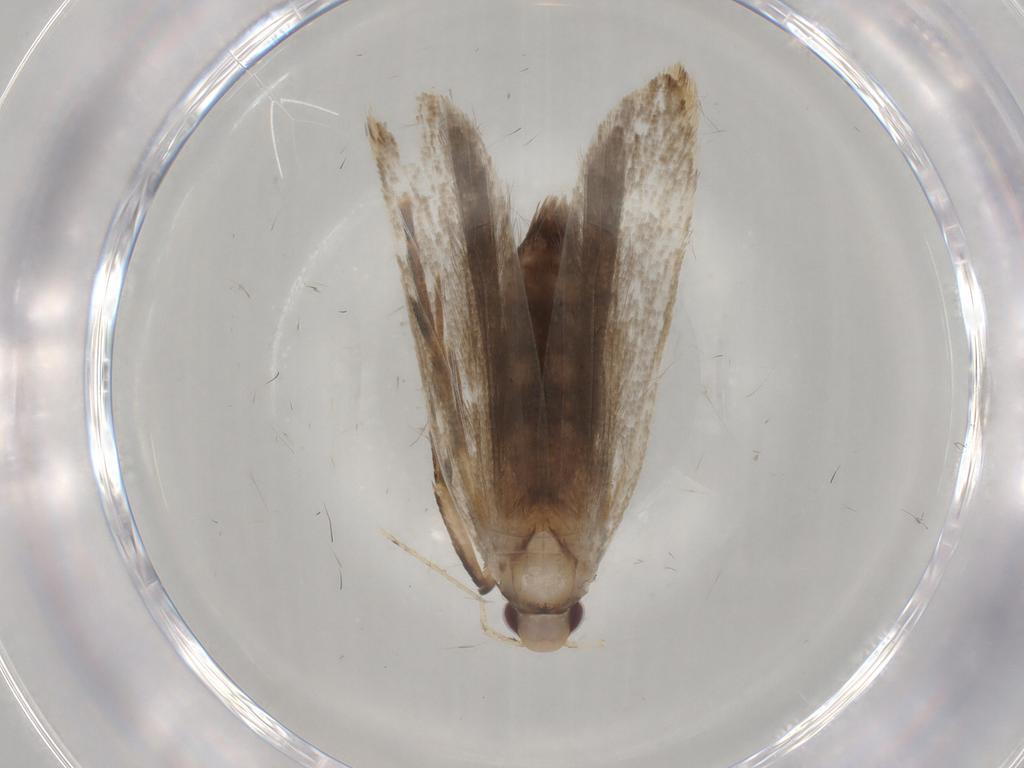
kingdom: Animalia
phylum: Arthropoda
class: Insecta
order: Lepidoptera
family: Gelechiidae
